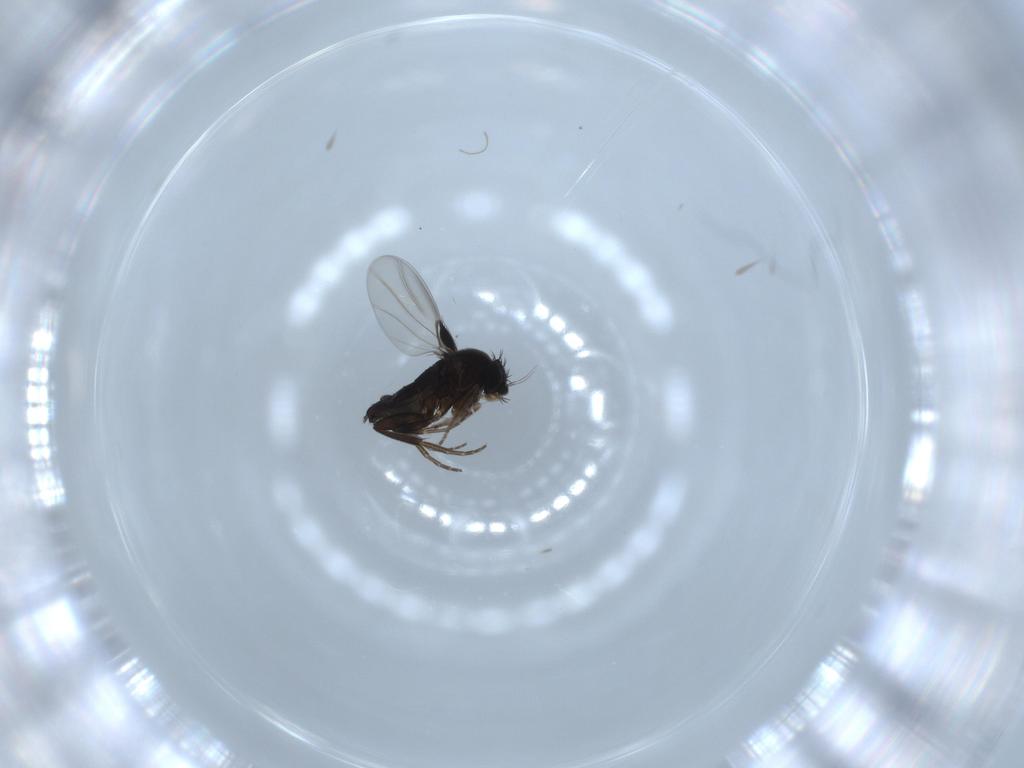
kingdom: Animalia
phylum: Arthropoda
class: Insecta
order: Diptera
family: Phoridae
